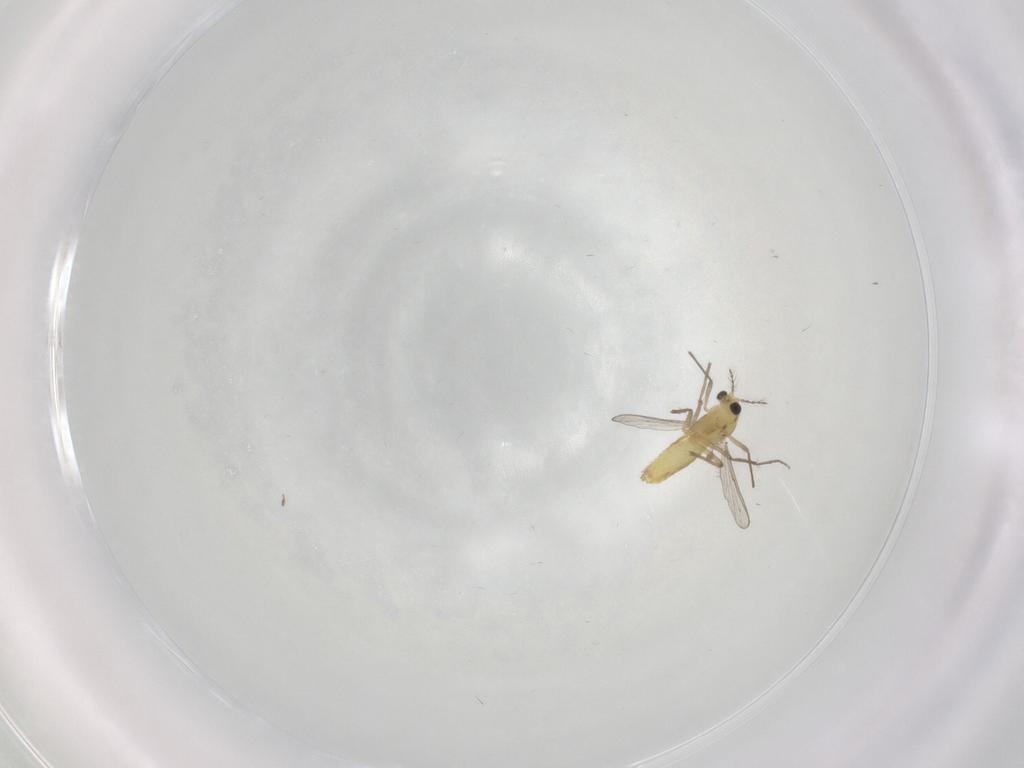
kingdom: Animalia
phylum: Arthropoda
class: Insecta
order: Diptera
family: Chironomidae
